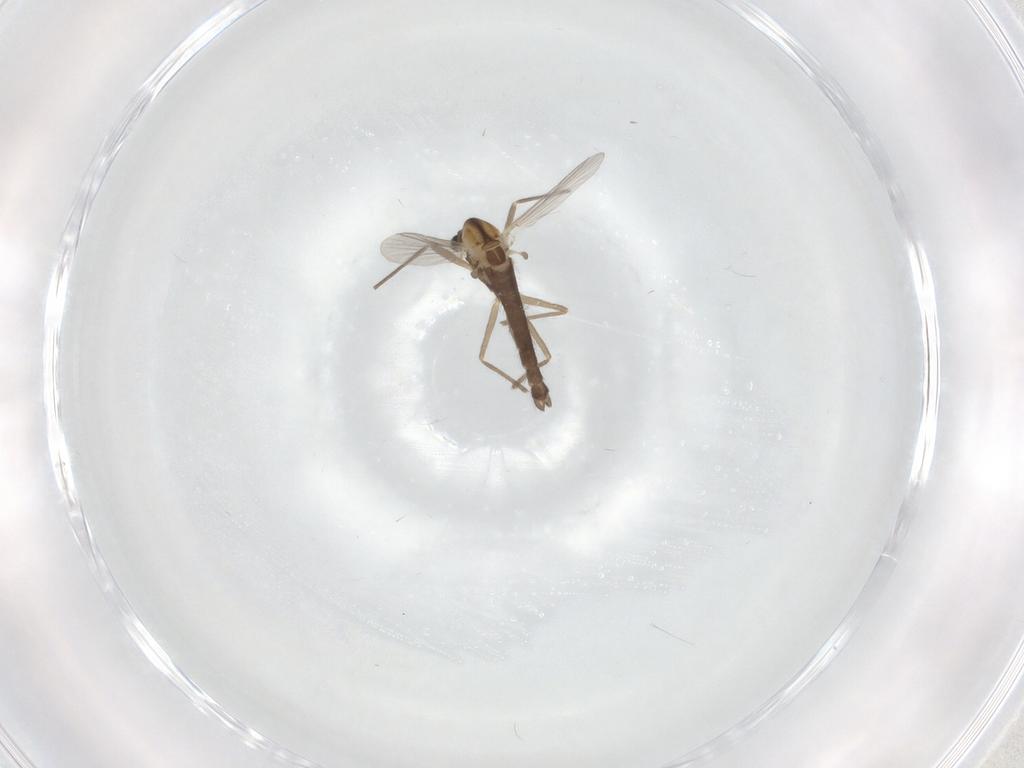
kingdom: Animalia
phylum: Arthropoda
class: Insecta
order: Diptera
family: Chironomidae
